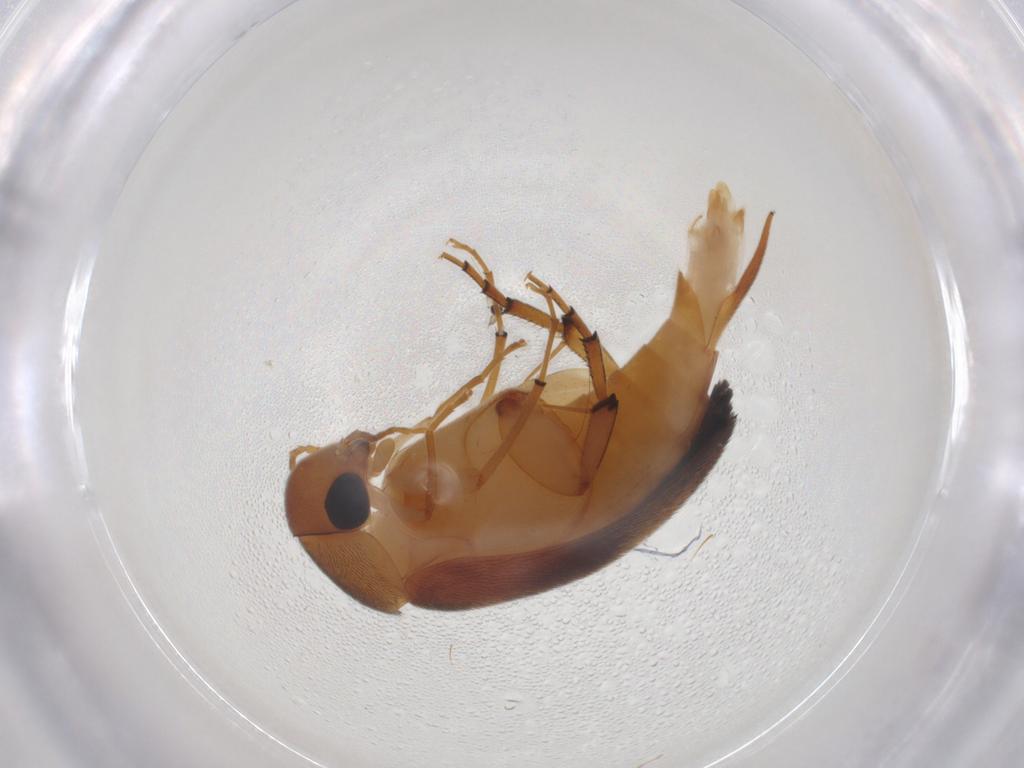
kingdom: Animalia
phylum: Arthropoda
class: Insecta
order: Coleoptera
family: Mordellidae
